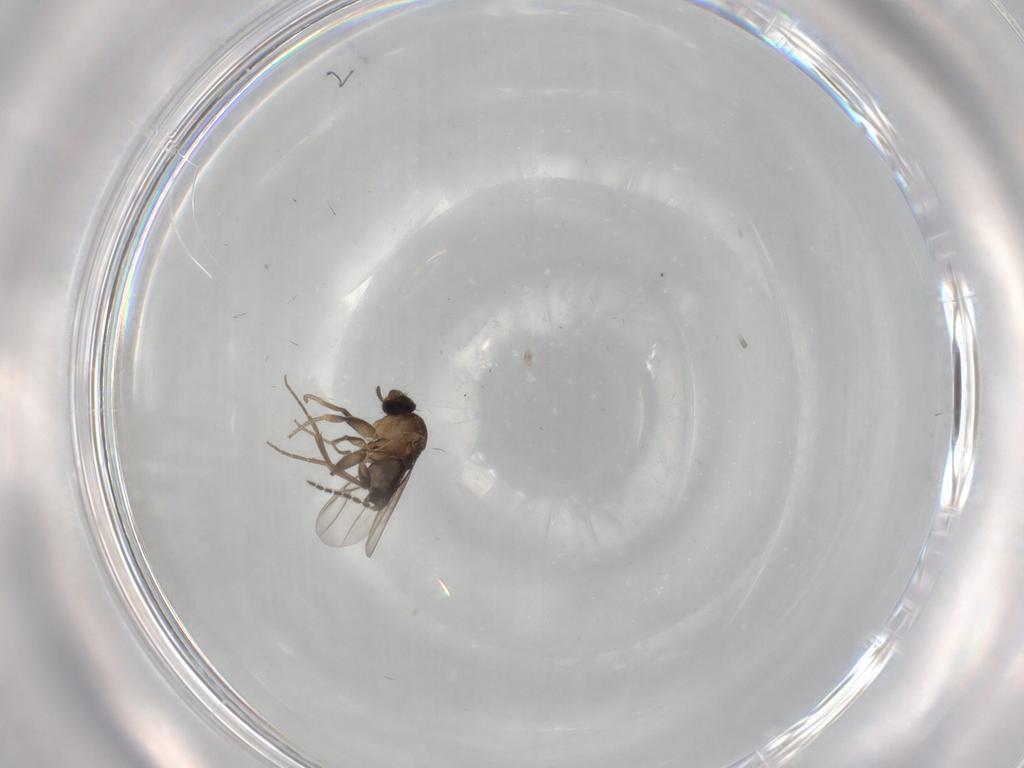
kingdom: Animalia
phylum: Arthropoda
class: Insecta
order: Diptera
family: Sciaridae
